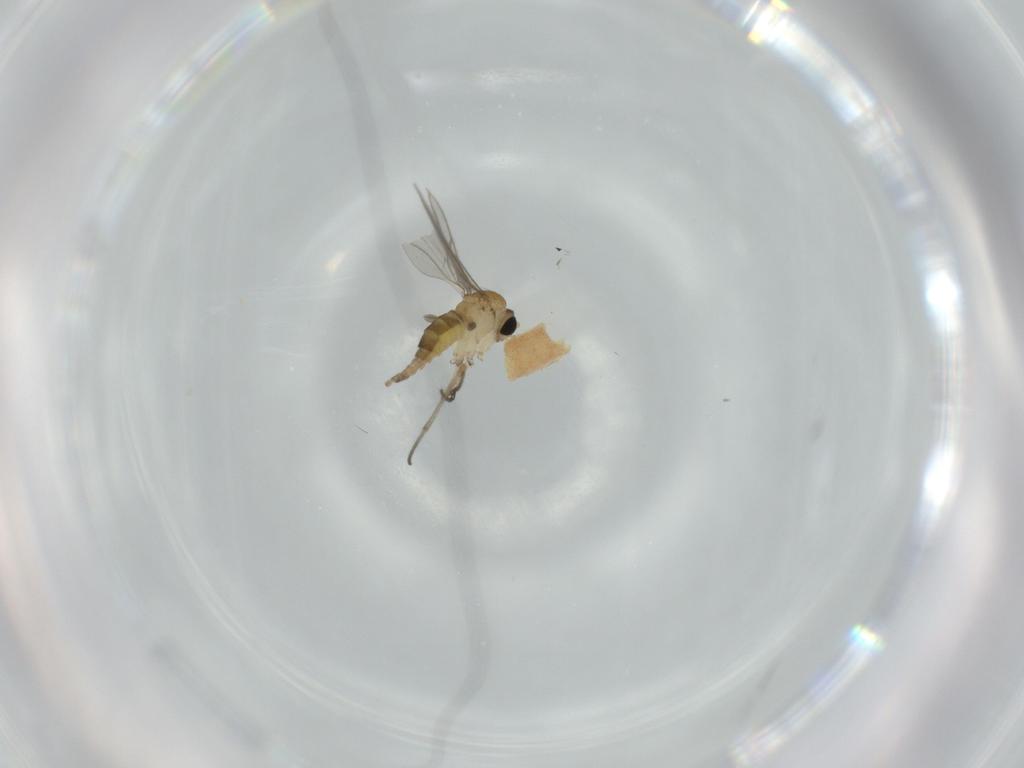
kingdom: Animalia
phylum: Arthropoda
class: Insecta
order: Diptera
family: Sciaridae
